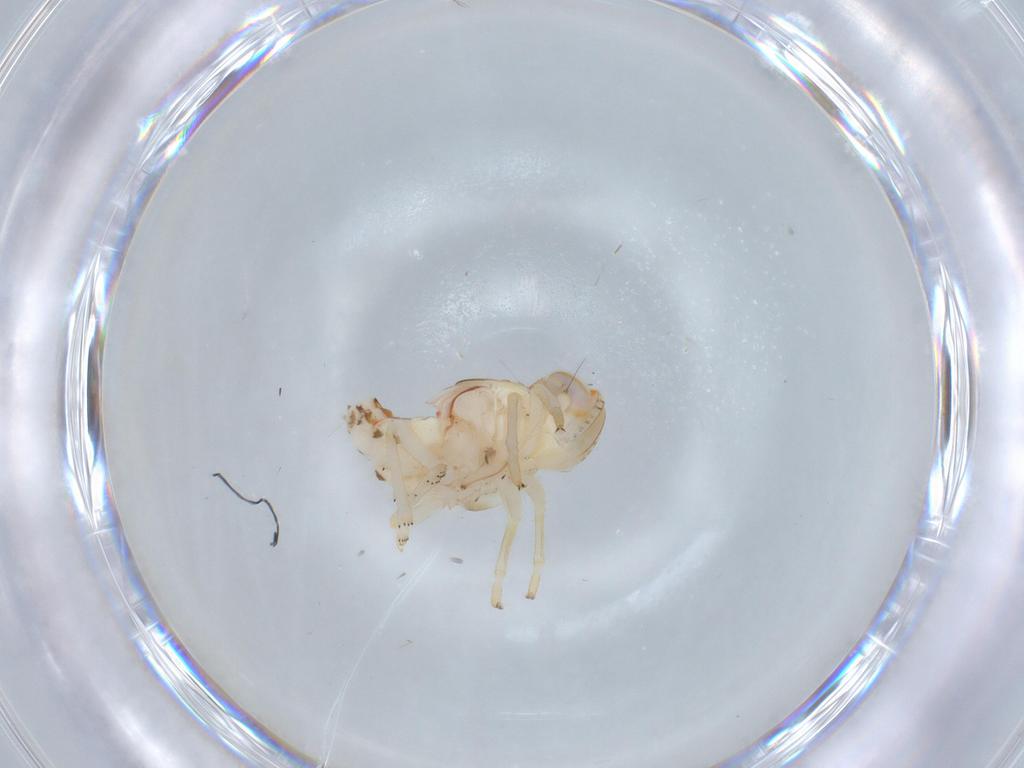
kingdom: Animalia
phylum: Arthropoda
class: Insecta
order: Hemiptera
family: Nogodinidae
